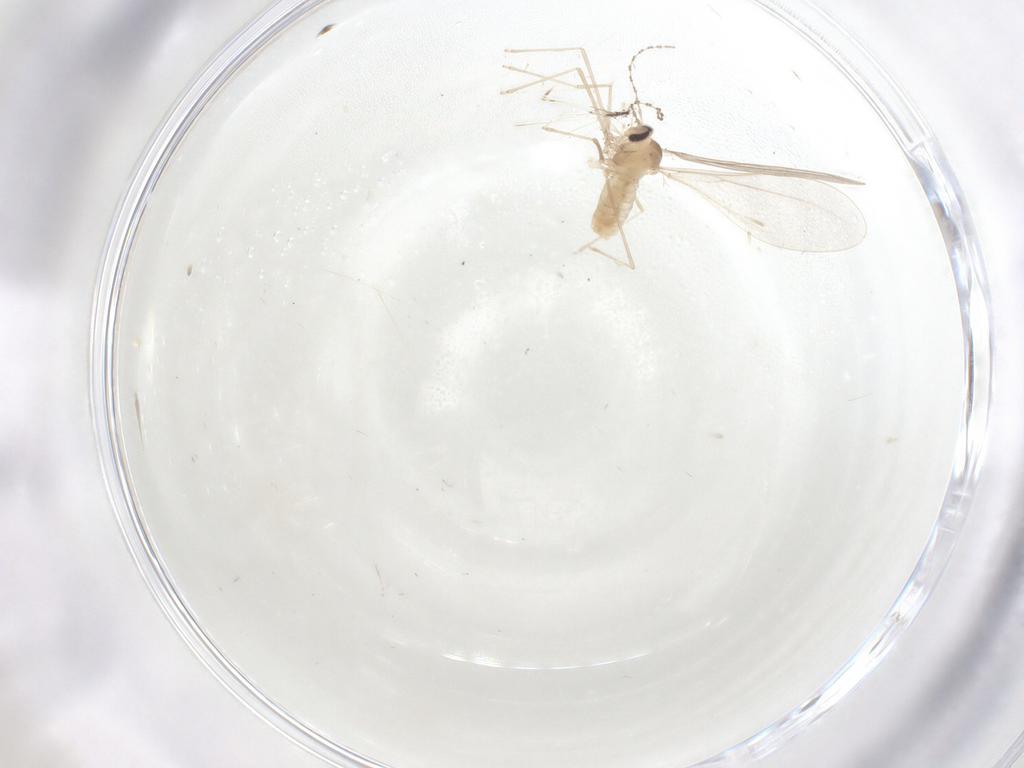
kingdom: Animalia
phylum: Arthropoda
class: Insecta
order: Diptera
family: Cecidomyiidae
